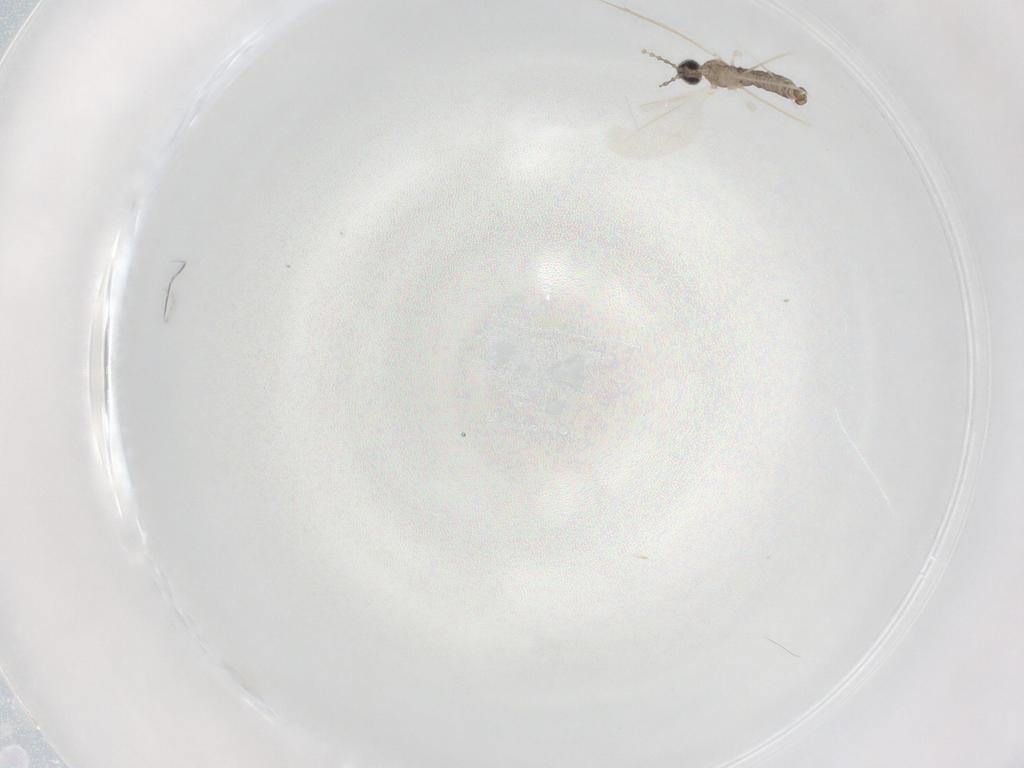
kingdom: Animalia
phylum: Arthropoda
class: Insecta
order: Diptera
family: Cecidomyiidae
